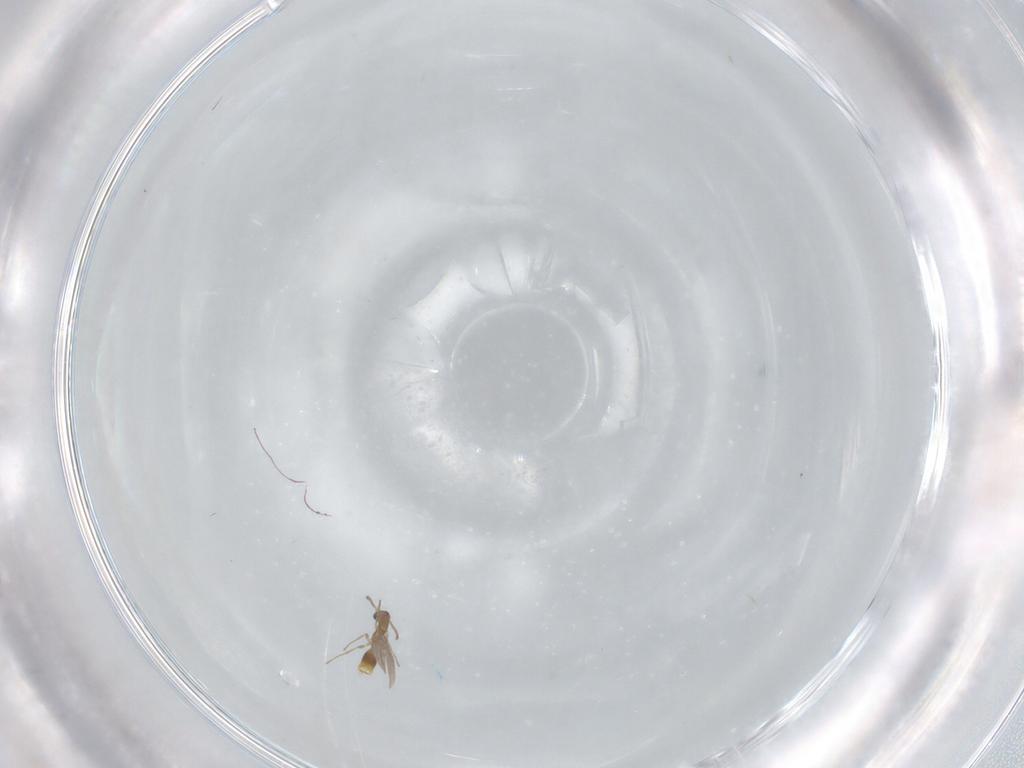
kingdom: Animalia
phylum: Arthropoda
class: Insecta
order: Hymenoptera
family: Formicidae
